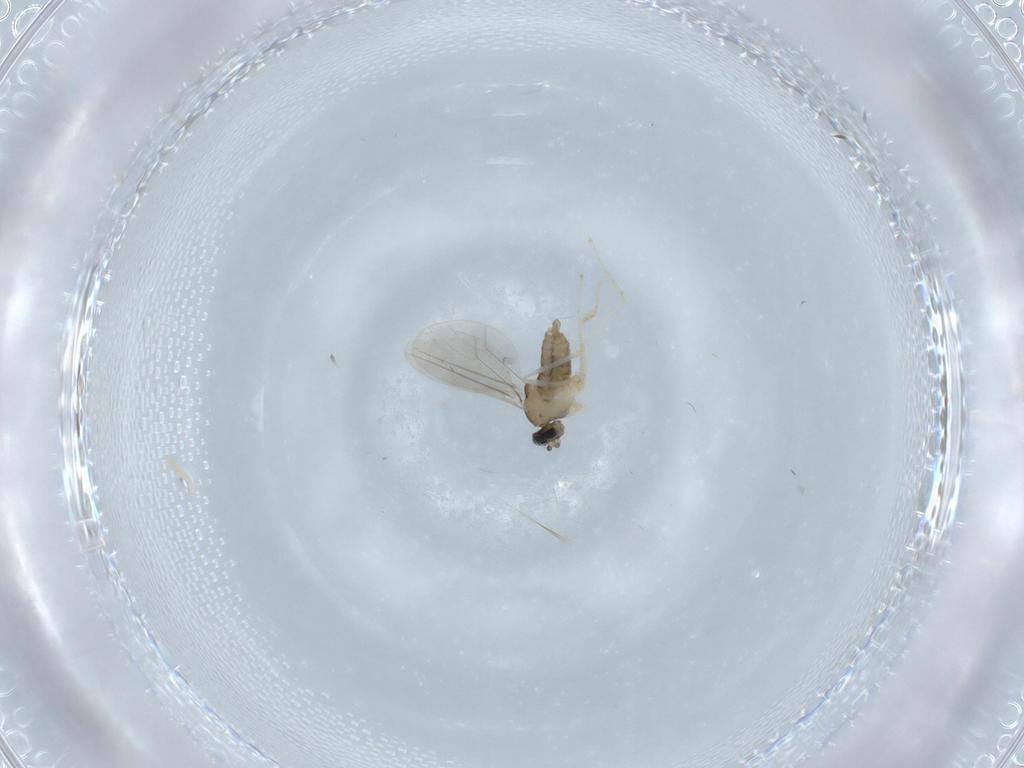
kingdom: Animalia
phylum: Arthropoda
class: Insecta
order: Diptera
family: Cecidomyiidae
